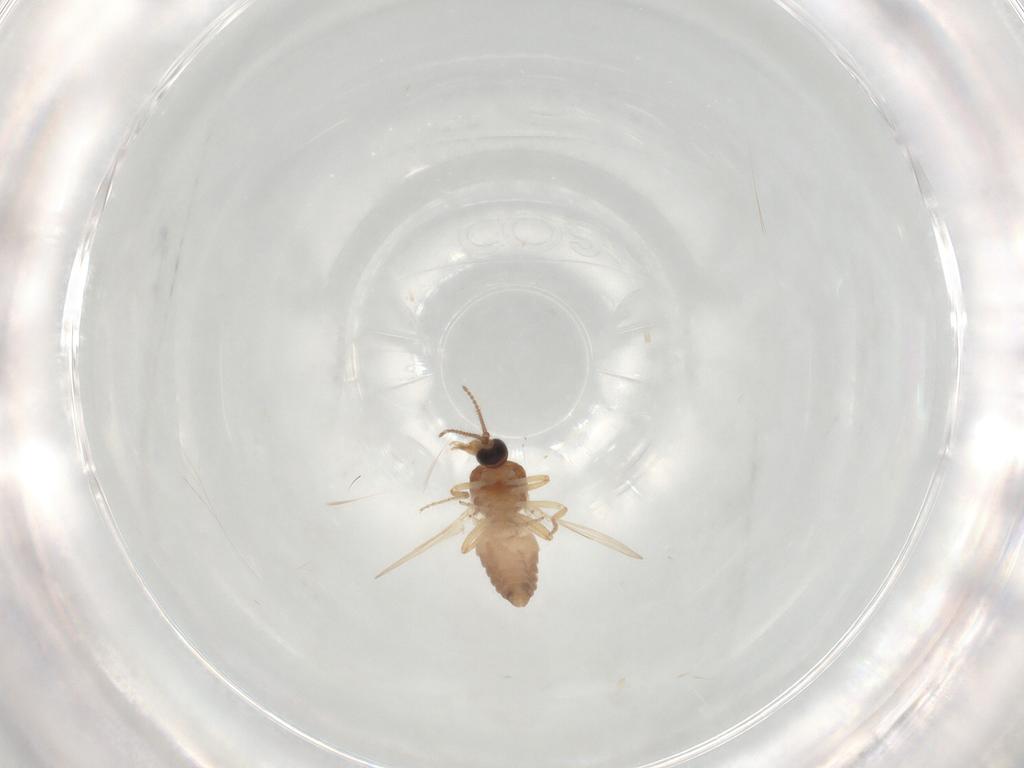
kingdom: Animalia
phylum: Arthropoda
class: Insecta
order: Diptera
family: Ceratopogonidae
